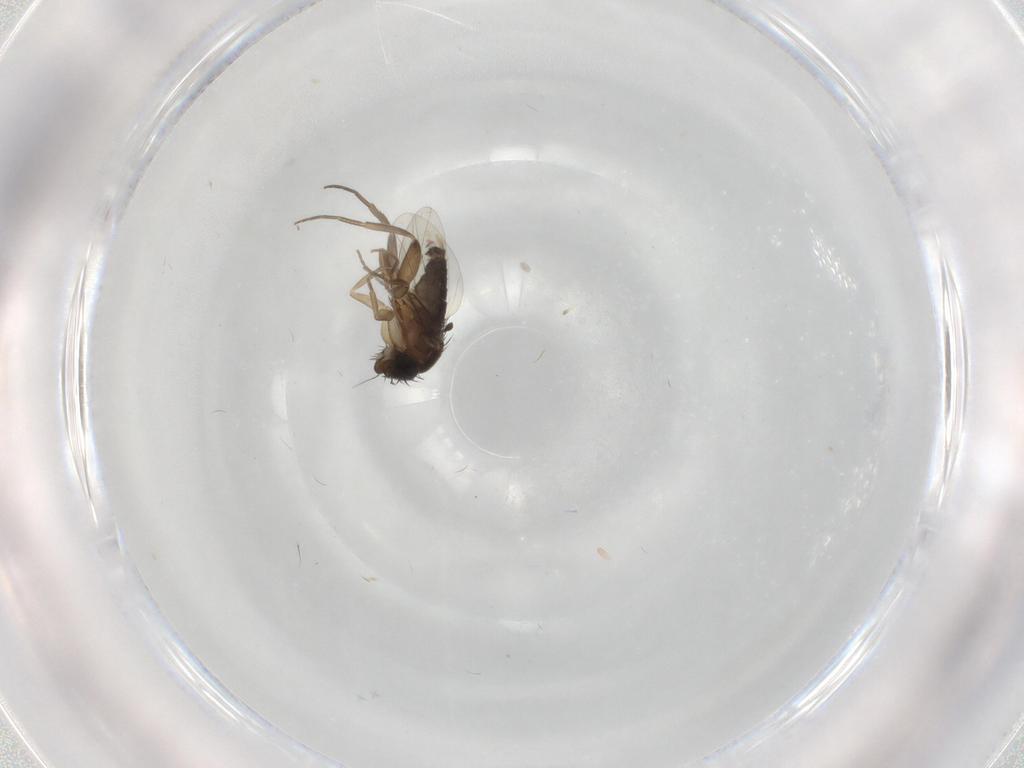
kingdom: Animalia
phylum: Arthropoda
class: Insecta
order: Diptera
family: Phoridae
